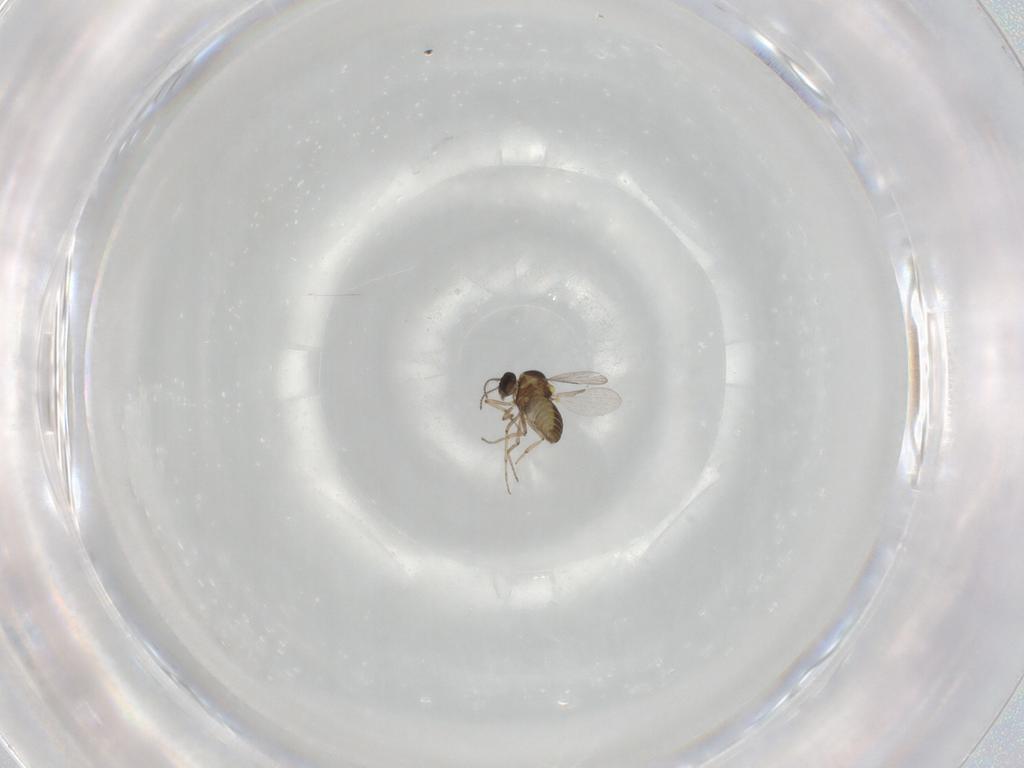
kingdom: Animalia
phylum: Arthropoda
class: Insecta
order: Diptera
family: Ceratopogonidae
